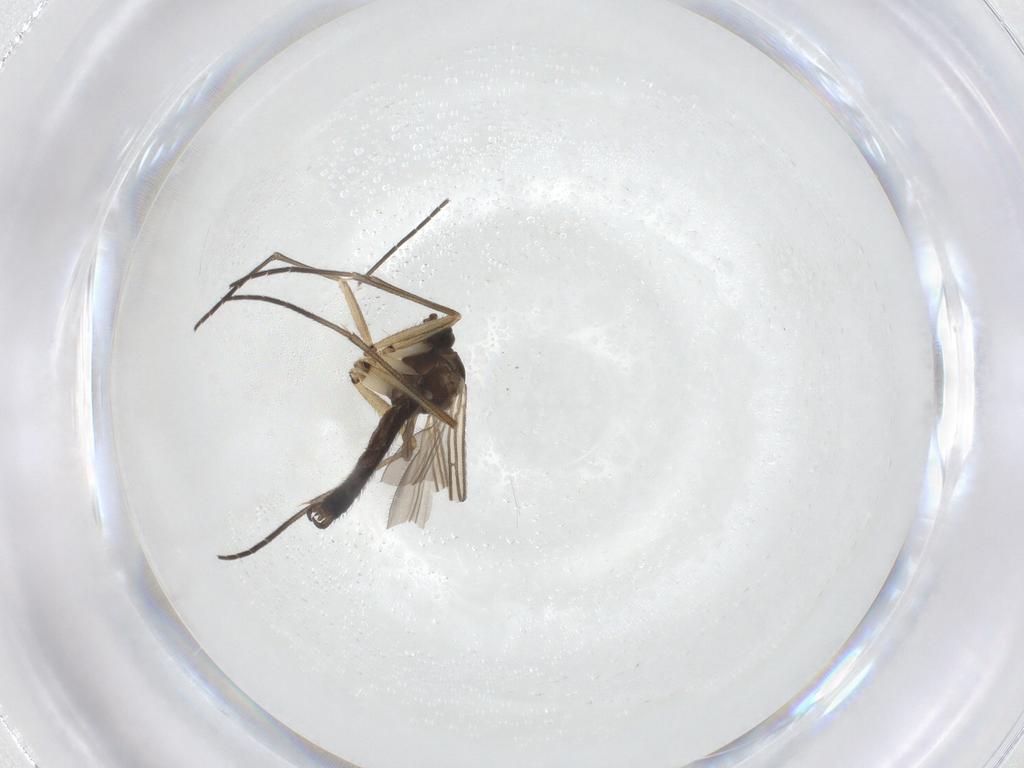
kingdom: Animalia
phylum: Arthropoda
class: Insecta
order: Diptera
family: Sciaridae
